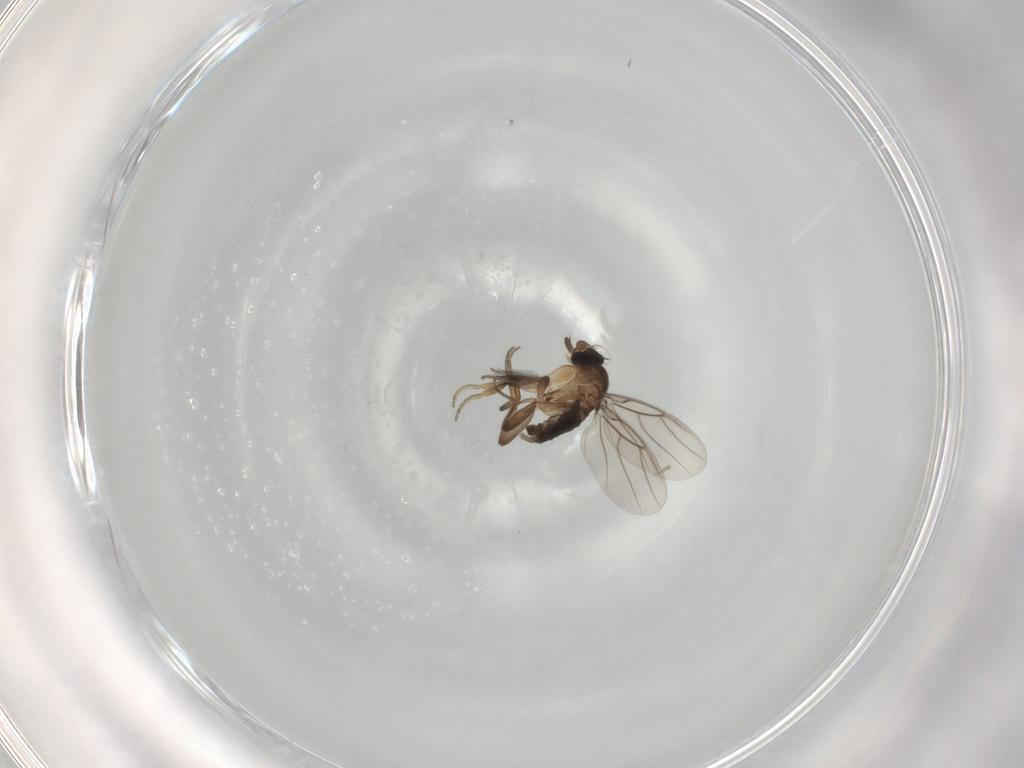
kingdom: Animalia
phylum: Arthropoda
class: Insecta
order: Diptera
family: Phoridae
